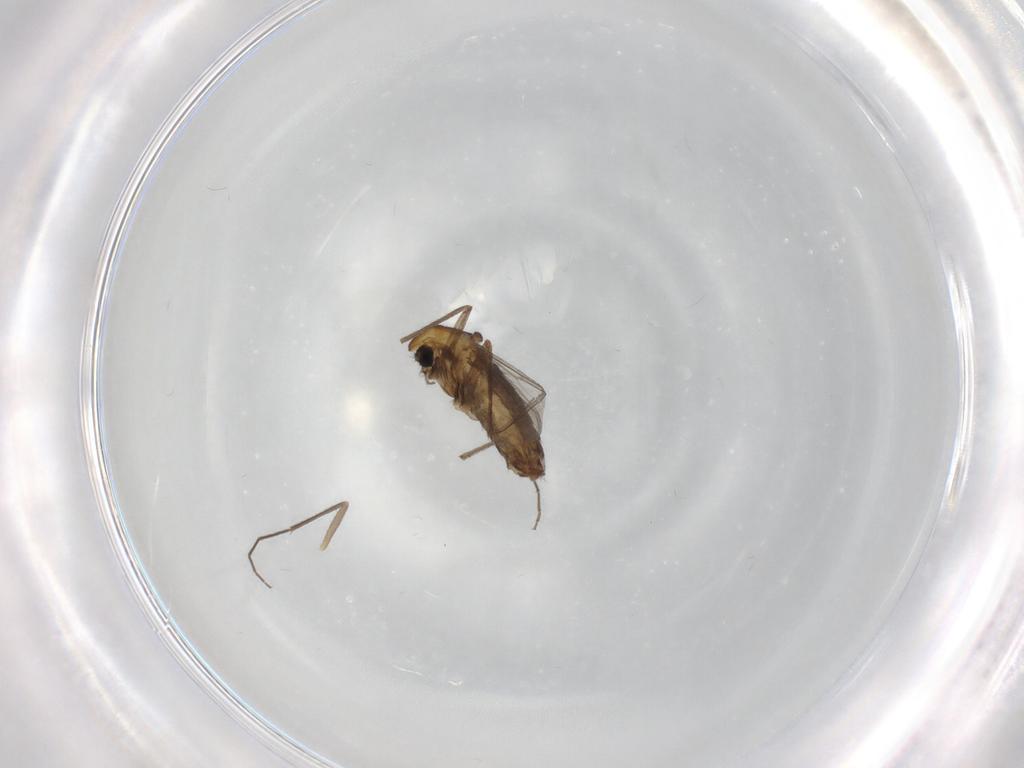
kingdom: Animalia
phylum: Arthropoda
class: Insecta
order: Diptera
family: Chironomidae
